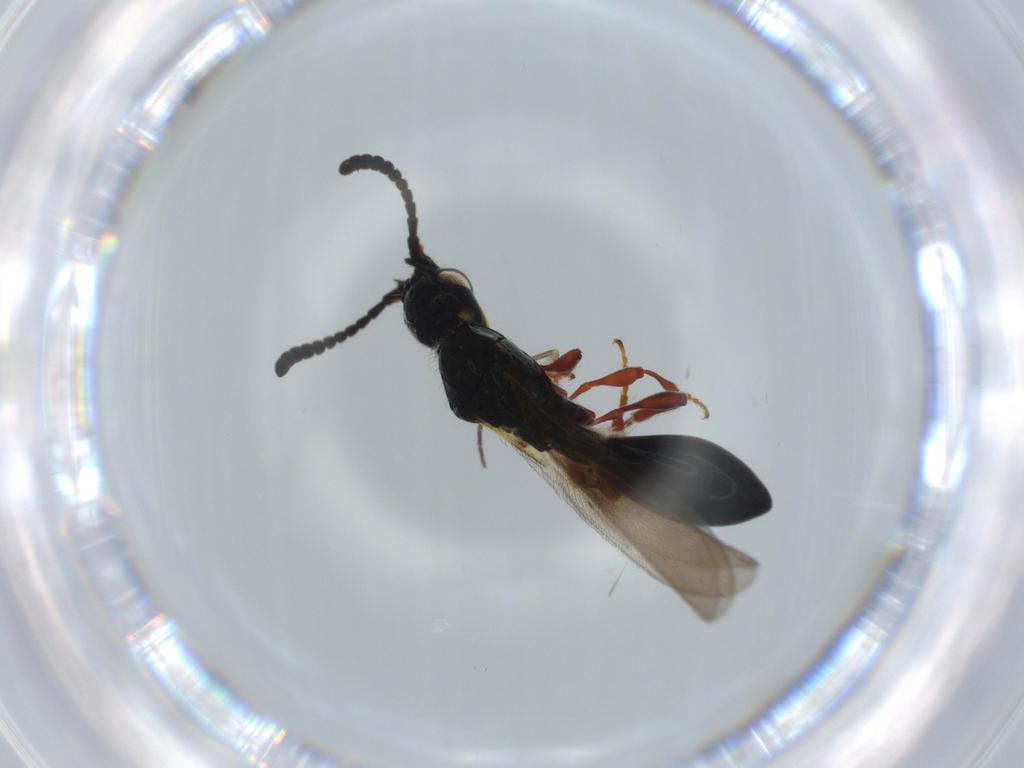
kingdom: Animalia
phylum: Arthropoda
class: Insecta
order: Hymenoptera
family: Diapriidae
